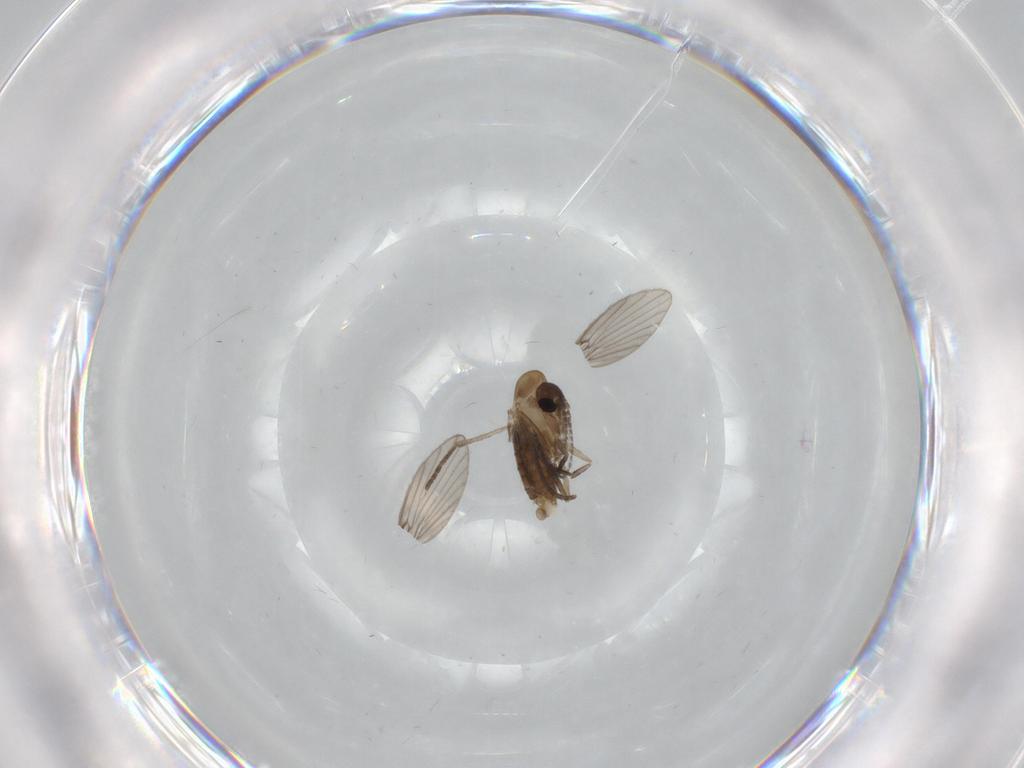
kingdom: Animalia
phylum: Arthropoda
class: Insecta
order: Diptera
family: Psychodidae
